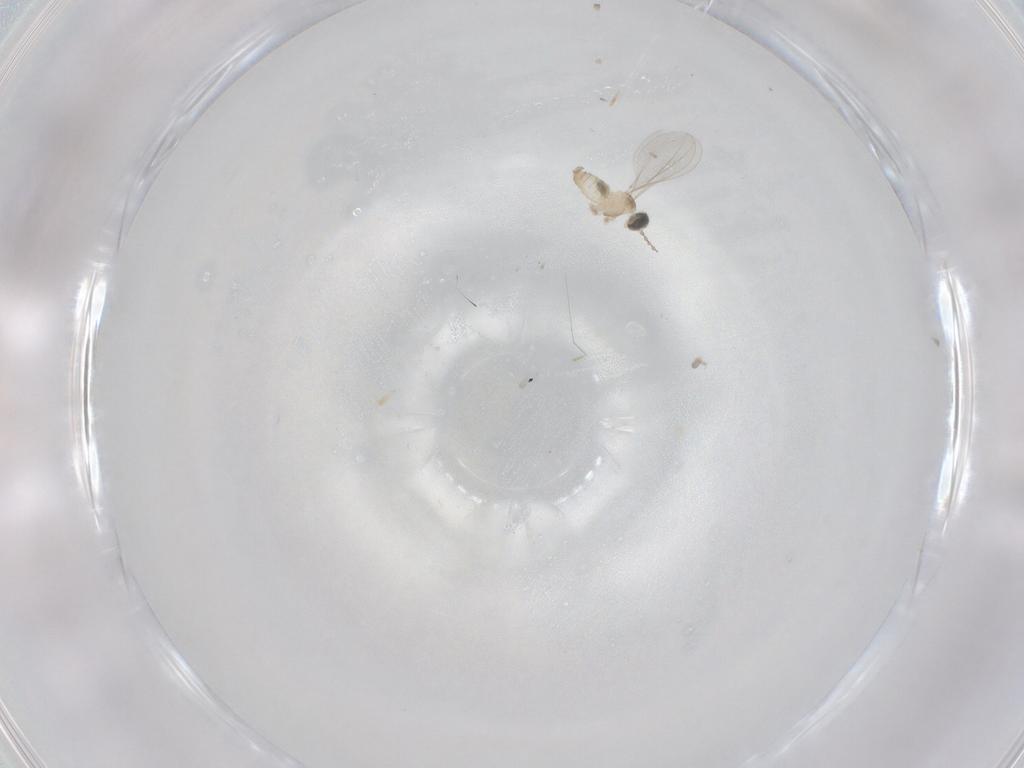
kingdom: Animalia
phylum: Arthropoda
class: Insecta
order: Diptera
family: Cecidomyiidae
